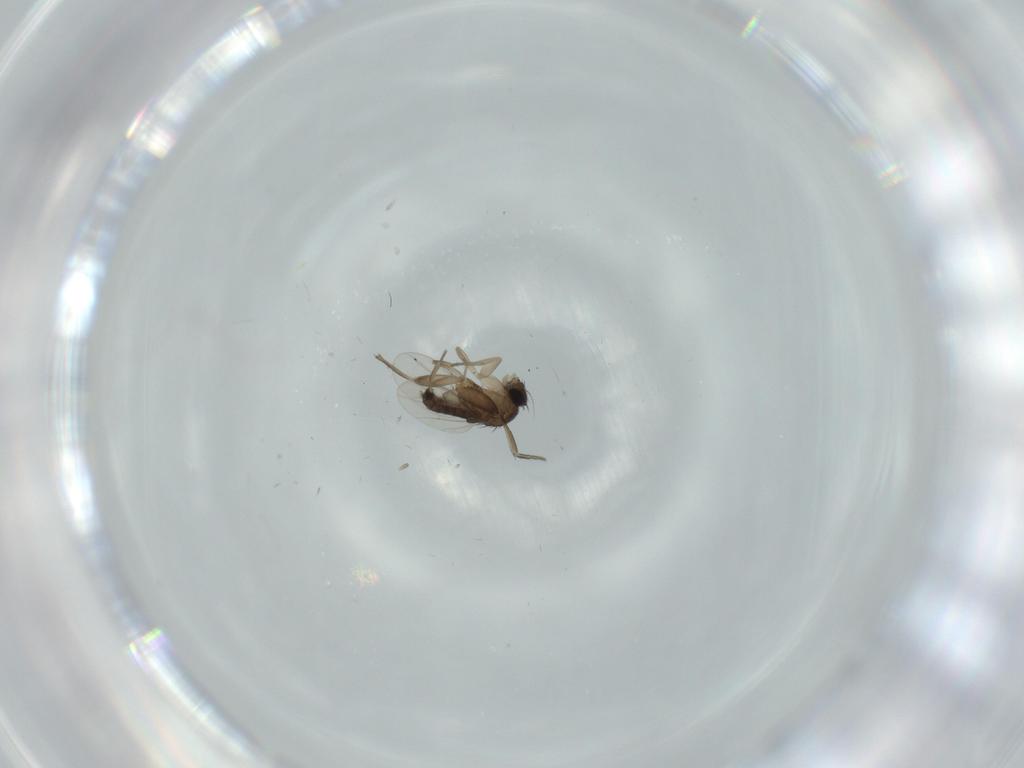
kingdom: Animalia
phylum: Arthropoda
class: Insecta
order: Diptera
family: Phoridae
